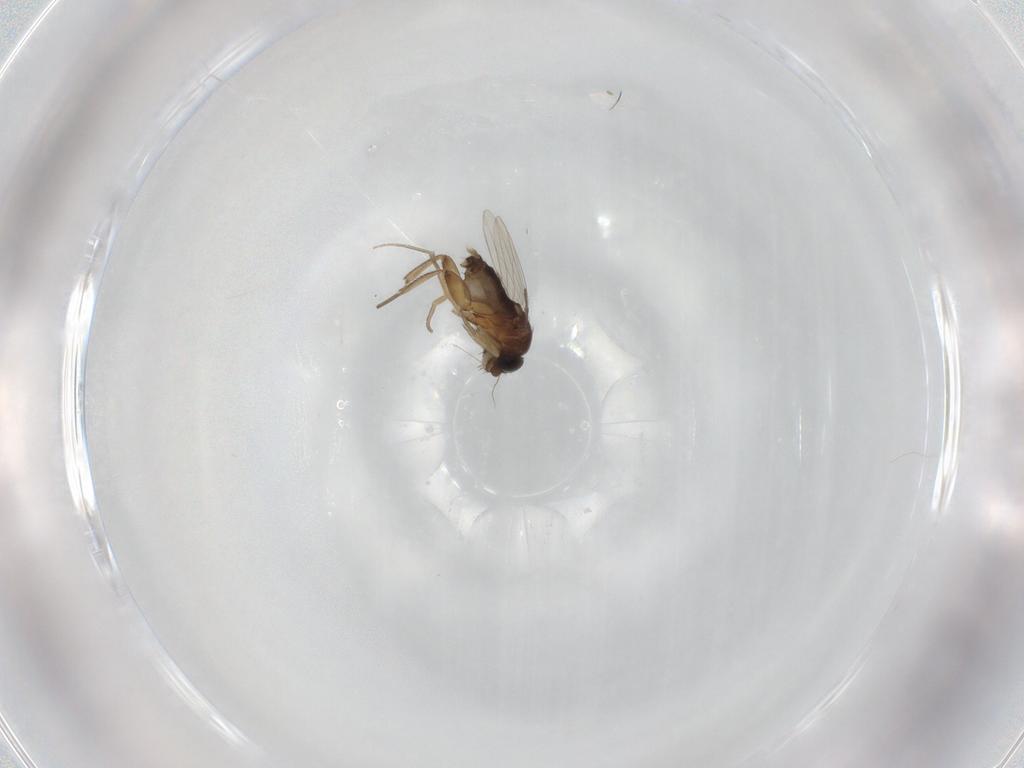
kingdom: Animalia
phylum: Arthropoda
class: Insecta
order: Diptera
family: Phoridae
